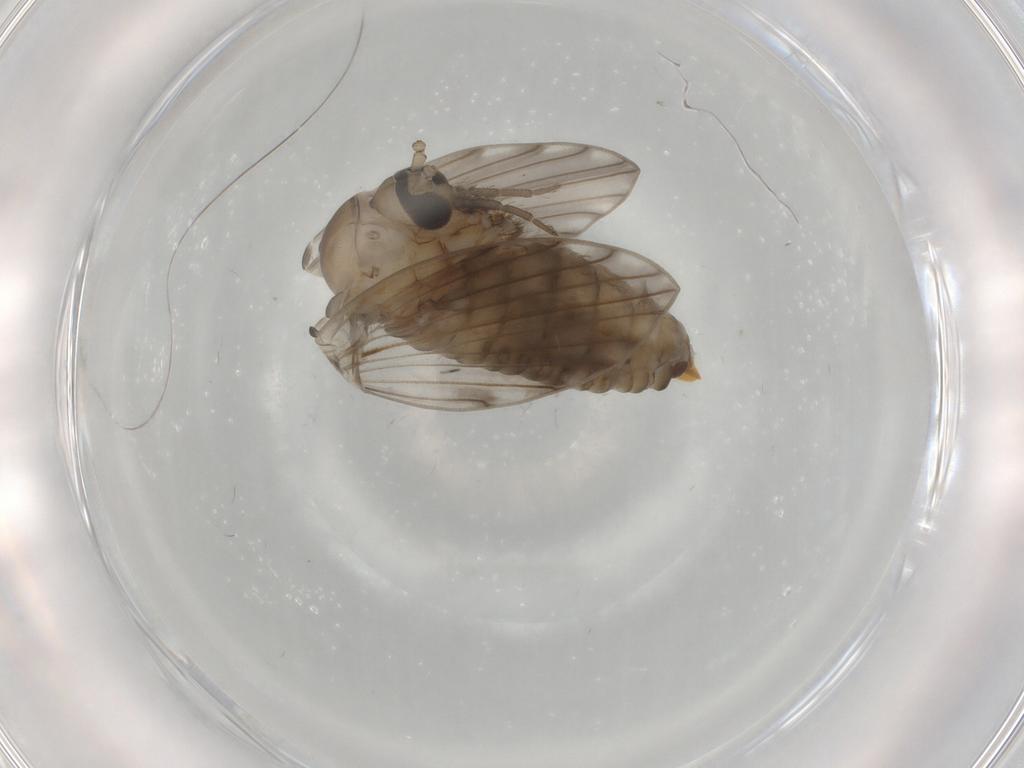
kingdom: Animalia
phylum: Arthropoda
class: Insecta
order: Diptera
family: Psychodidae
